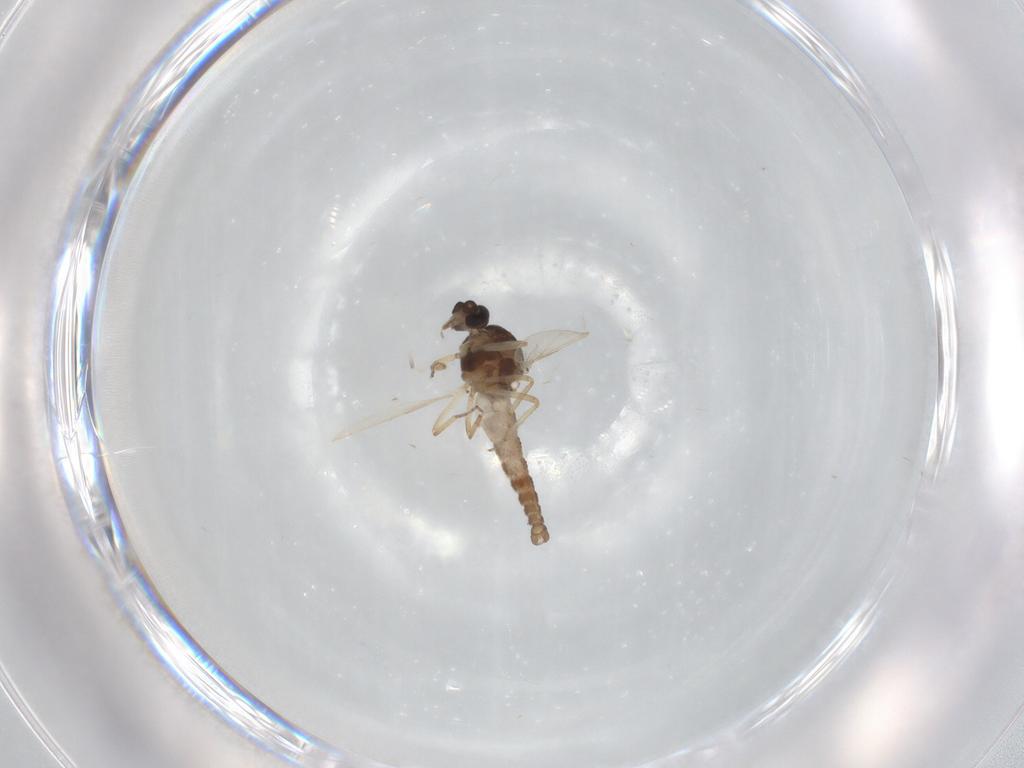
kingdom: Animalia
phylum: Arthropoda
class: Insecta
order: Diptera
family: Ceratopogonidae
